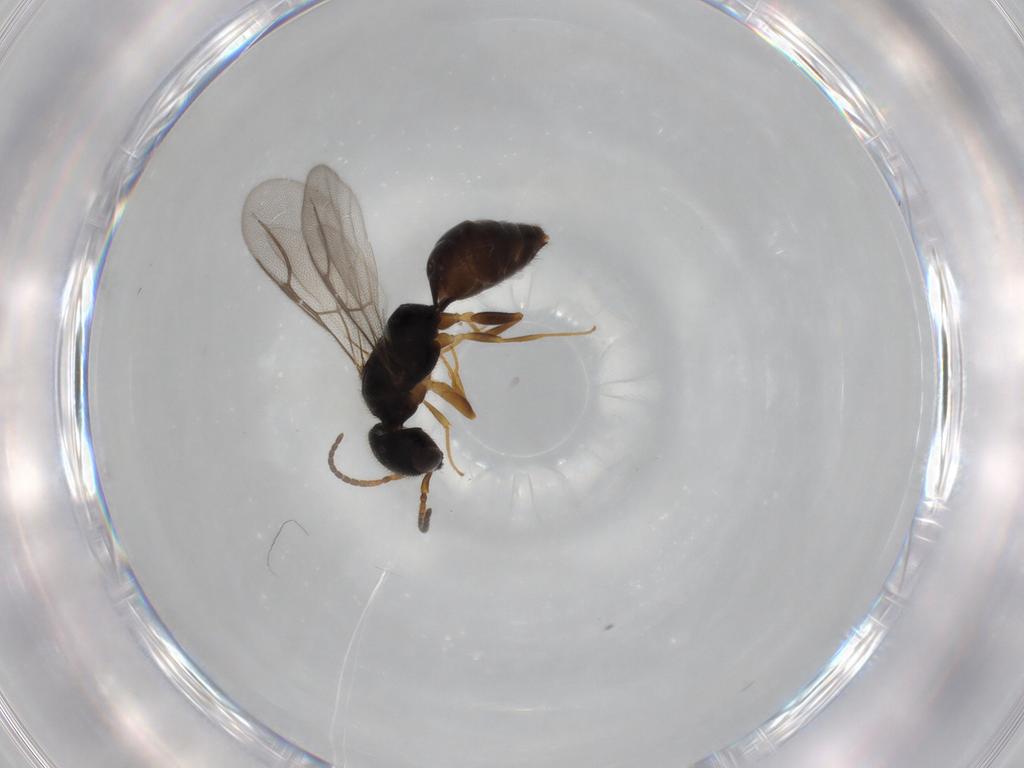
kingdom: Animalia
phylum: Arthropoda
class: Insecta
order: Hymenoptera
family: Bethylidae
